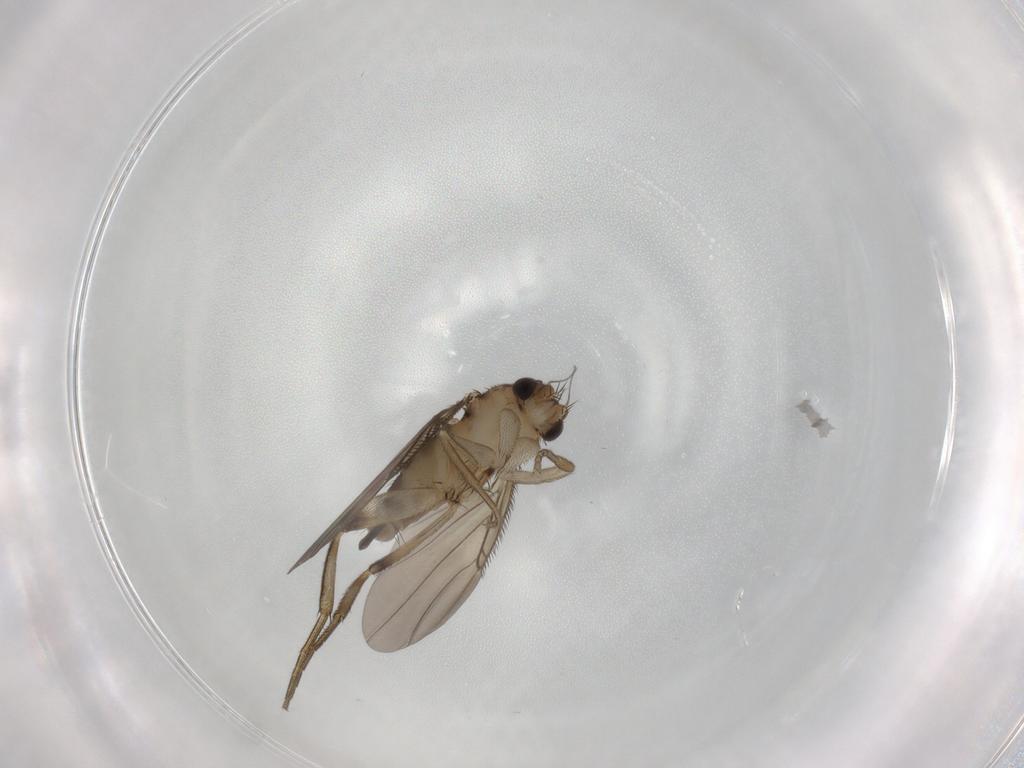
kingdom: Animalia
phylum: Arthropoda
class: Insecta
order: Diptera
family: Phoridae
